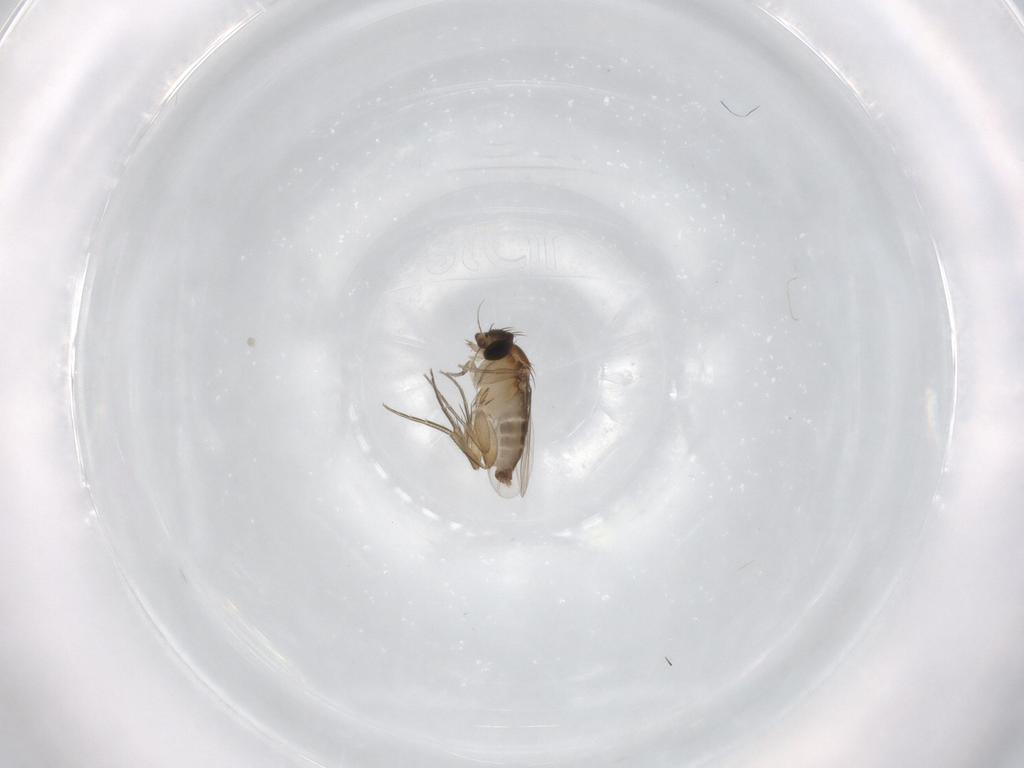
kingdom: Animalia
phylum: Arthropoda
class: Insecta
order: Diptera
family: Phoridae
